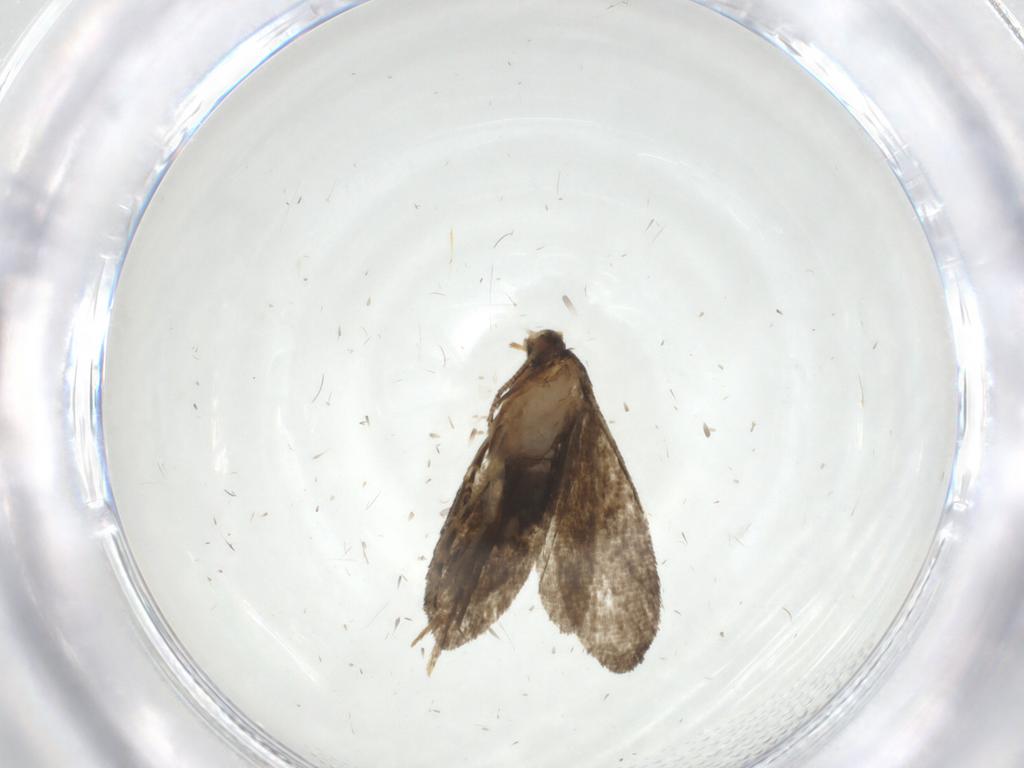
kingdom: Animalia
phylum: Arthropoda
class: Insecta
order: Lepidoptera
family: Tineidae
